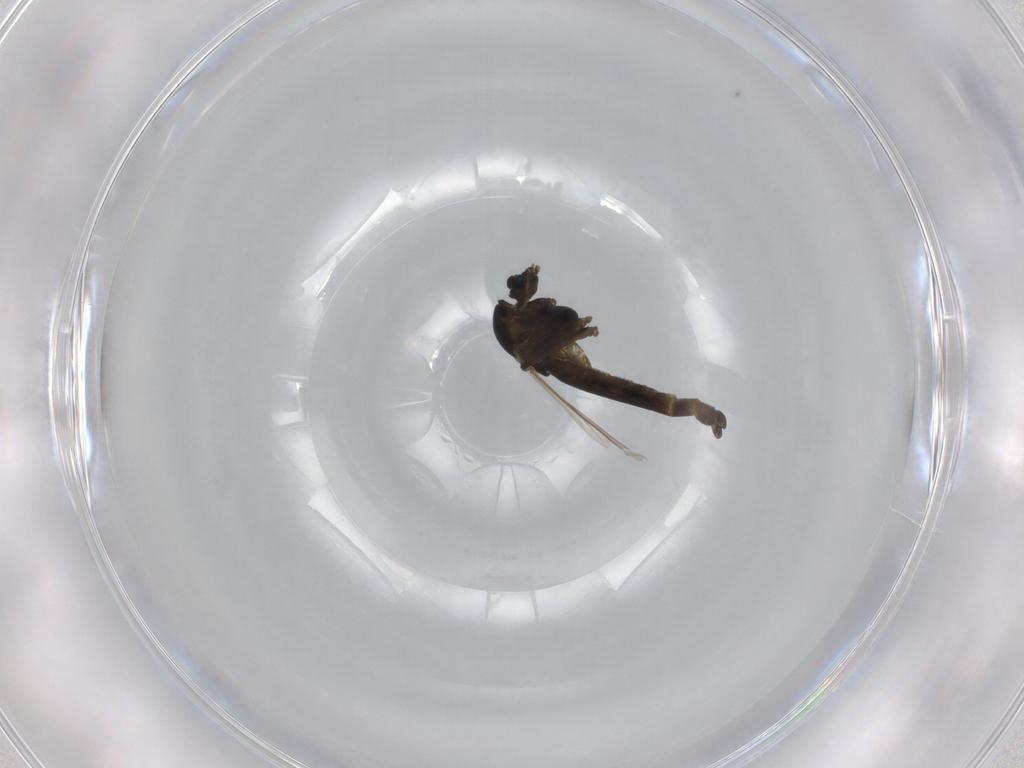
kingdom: Animalia
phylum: Arthropoda
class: Insecta
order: Diptera
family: Chironomidae
